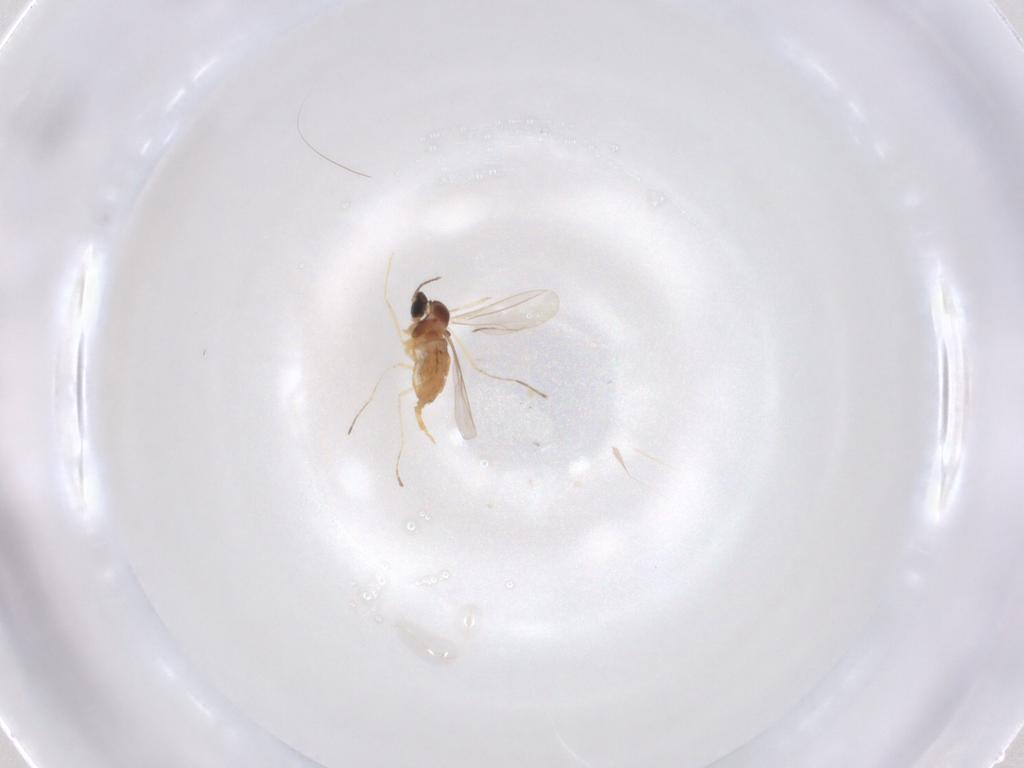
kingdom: Animalia
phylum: Arthropoda
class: Insecta
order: Diptera
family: Cecidomyiidae
